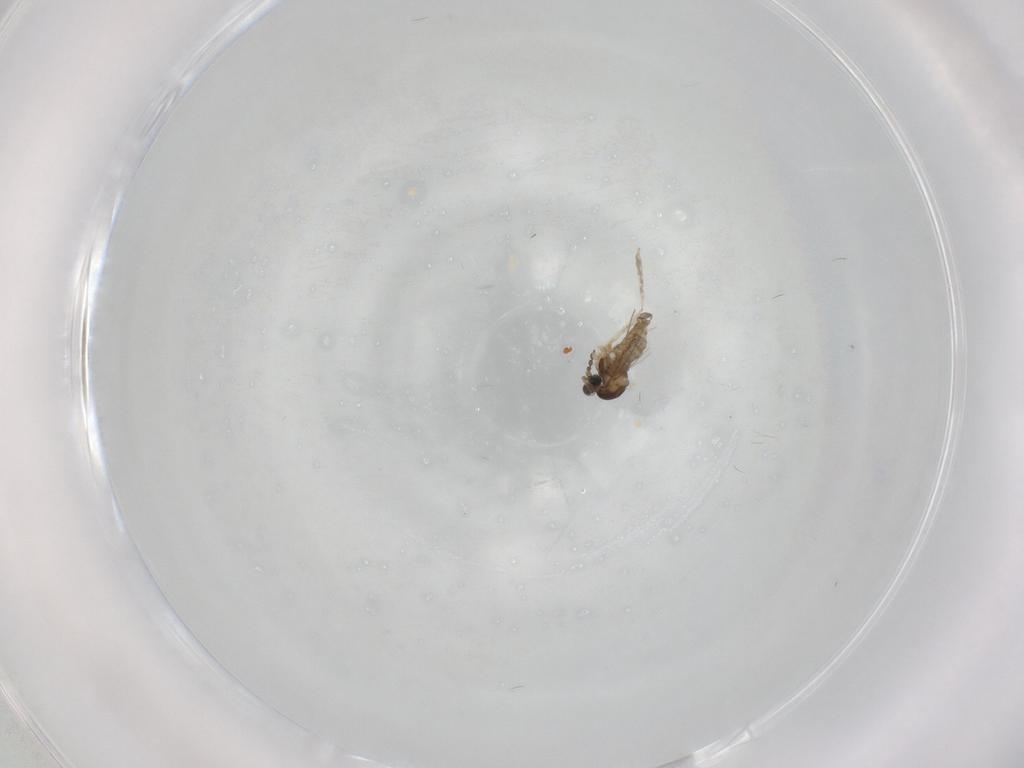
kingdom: Animalia
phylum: Arthropoda
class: Insecta
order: Diptera
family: Cecidomyiidae
